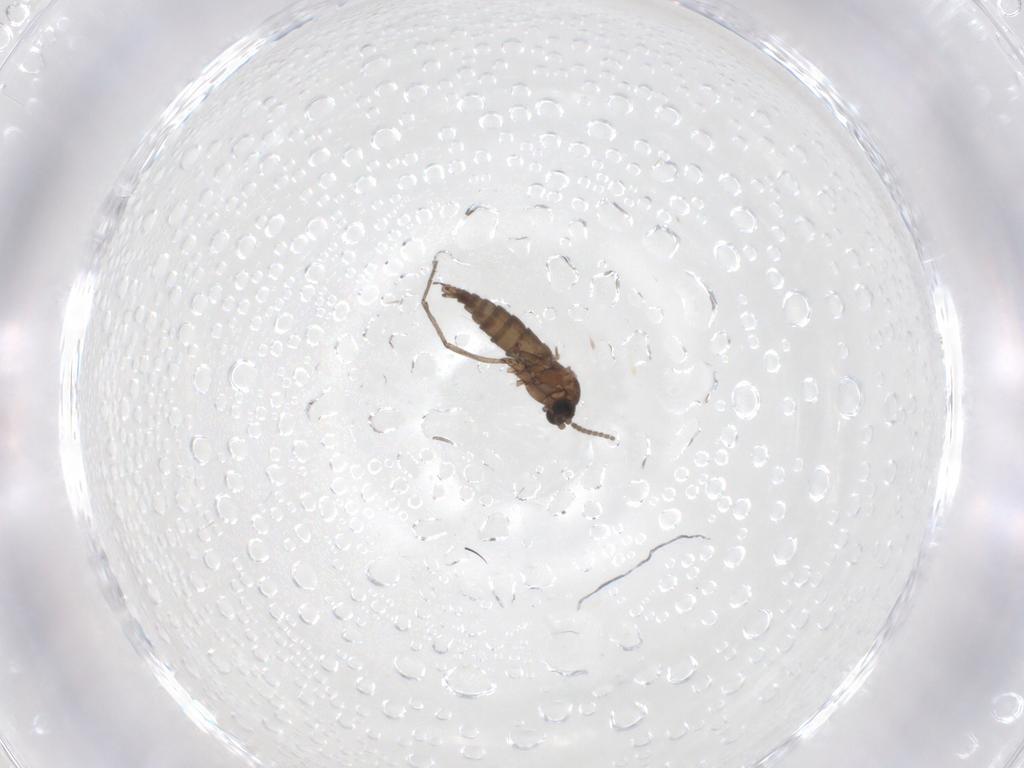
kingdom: Animalia
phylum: Arthropoda
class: Insecta
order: Diptera
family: Sciaridae
